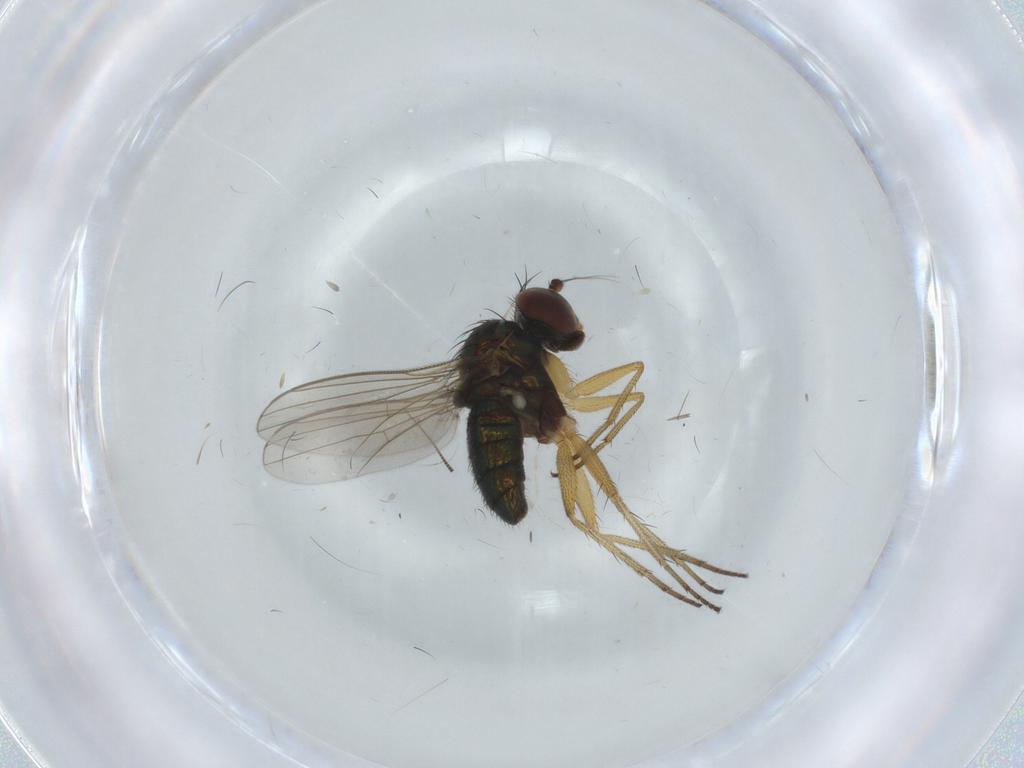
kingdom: Animalia
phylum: Arthropoda
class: Insecta
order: Diptera
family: Chironomidae
